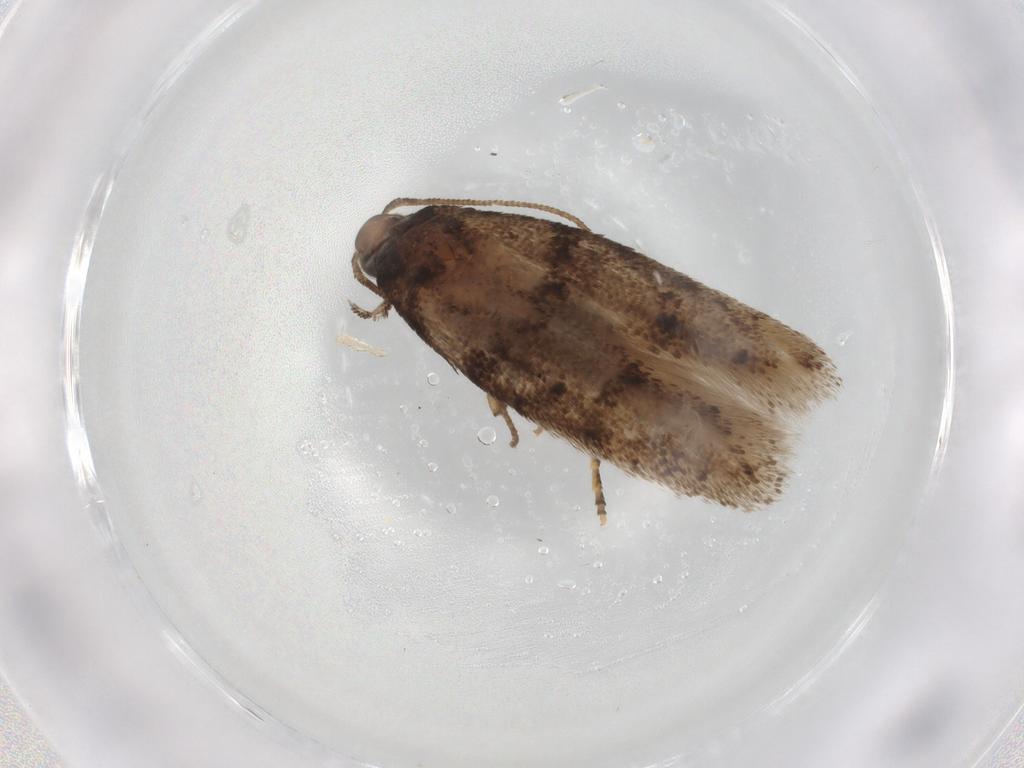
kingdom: Animalia
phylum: Arthropoda
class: Insecta
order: Lepidoptera
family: Gelechiidae
